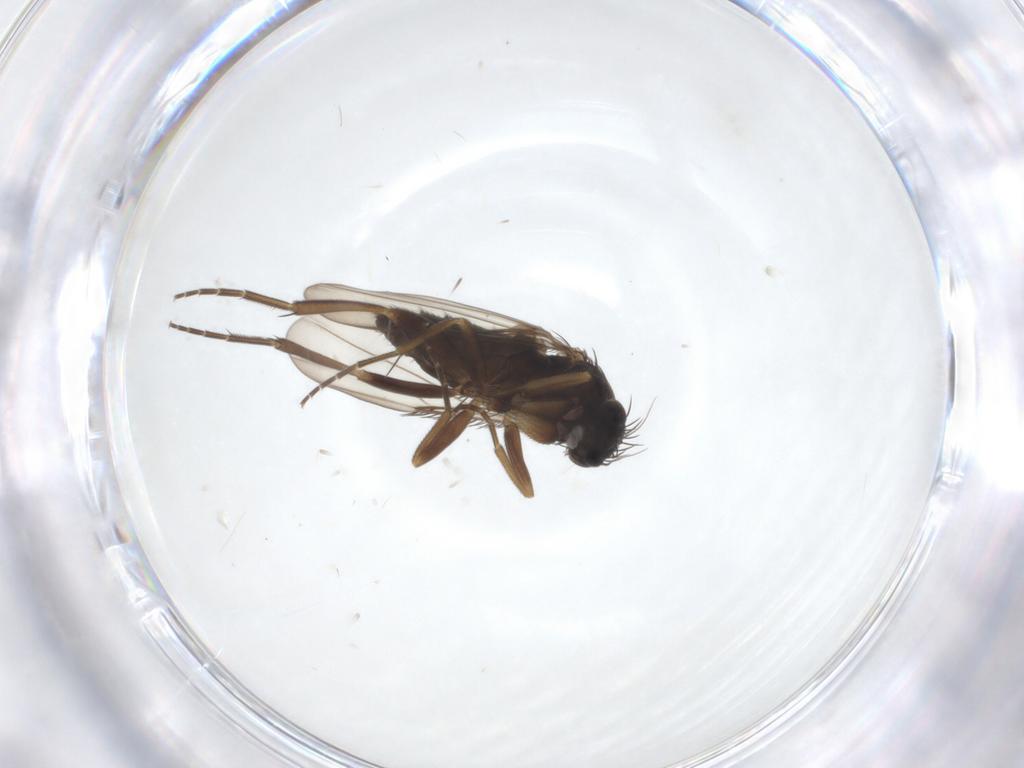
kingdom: Animalia
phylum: Arthropoda
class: Insecta
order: Diptera
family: Phoridae
